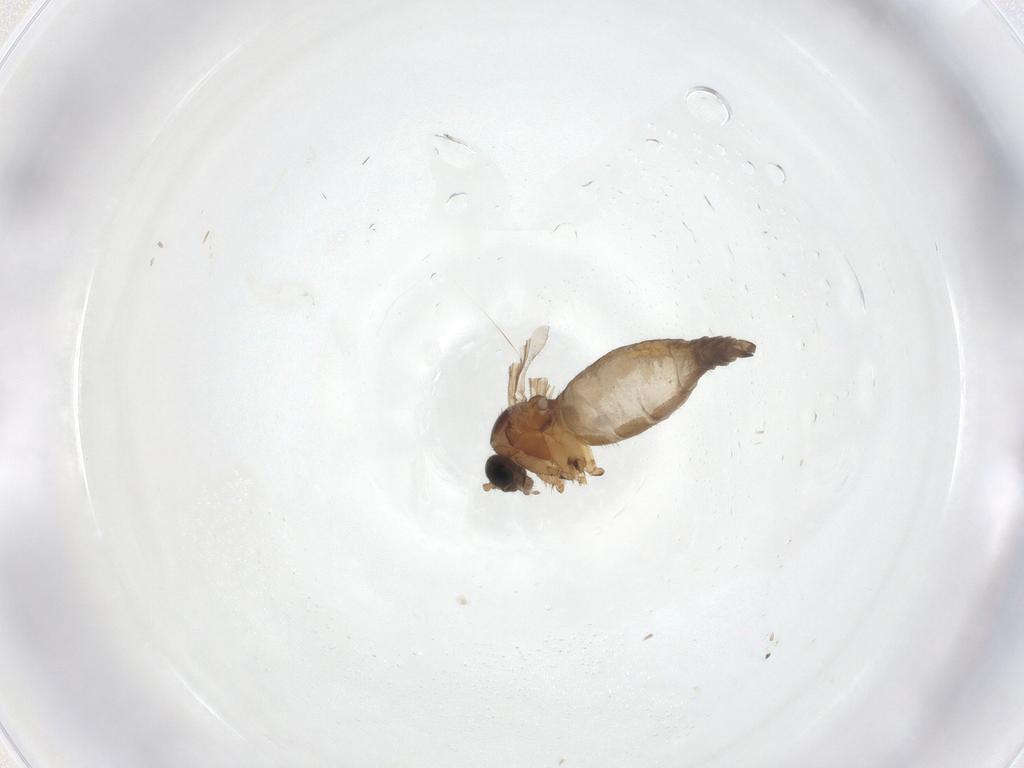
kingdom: Animalia
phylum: Arthropoda
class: Insecta
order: Diptera
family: Sciaridae
